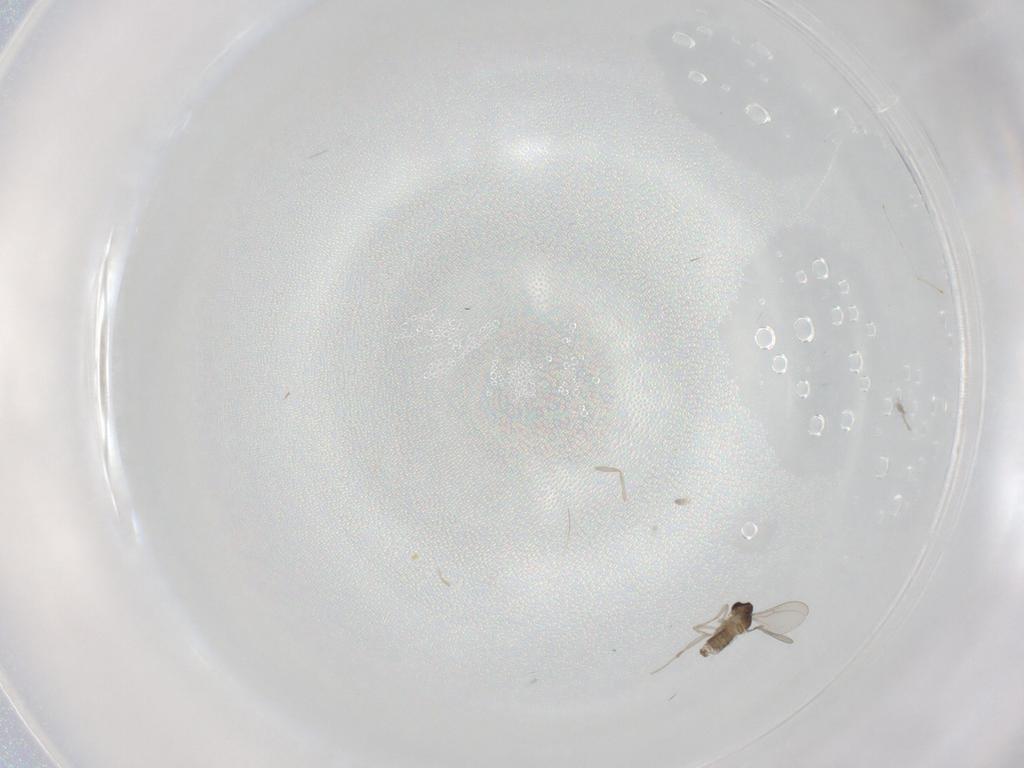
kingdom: Animalia
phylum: Arthropoda
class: Insecta
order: Diptera
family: Cecidomyiidae
